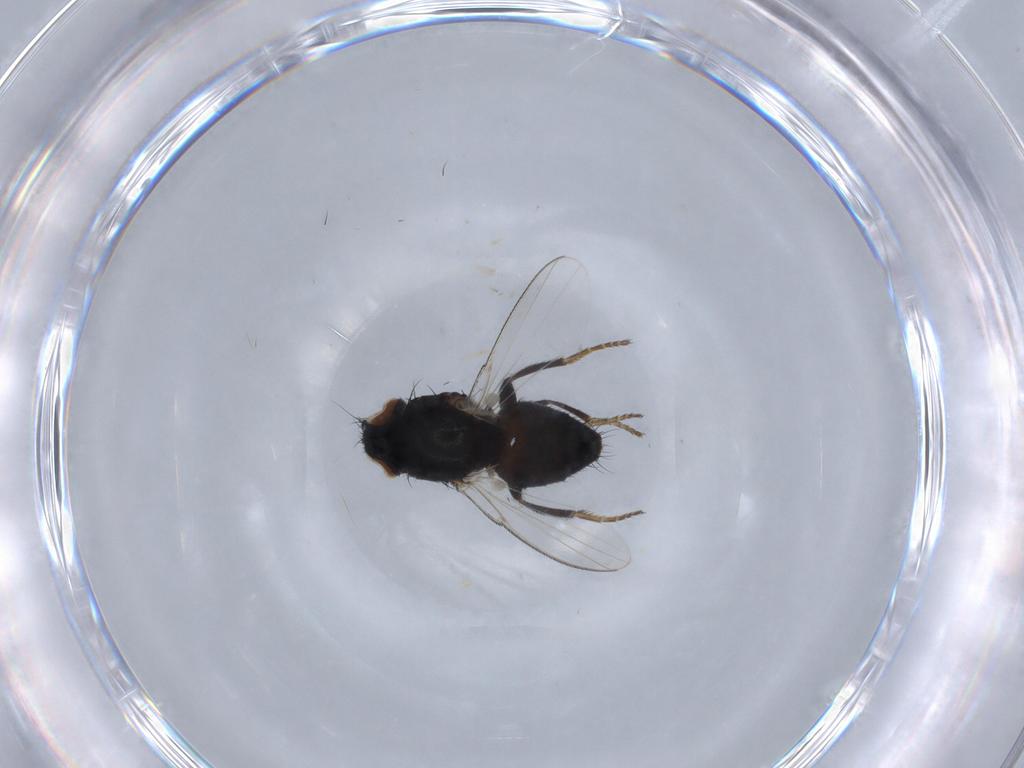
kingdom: Animalia
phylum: Arthropoda
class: Insecta
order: Diptera
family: Milichiidae
